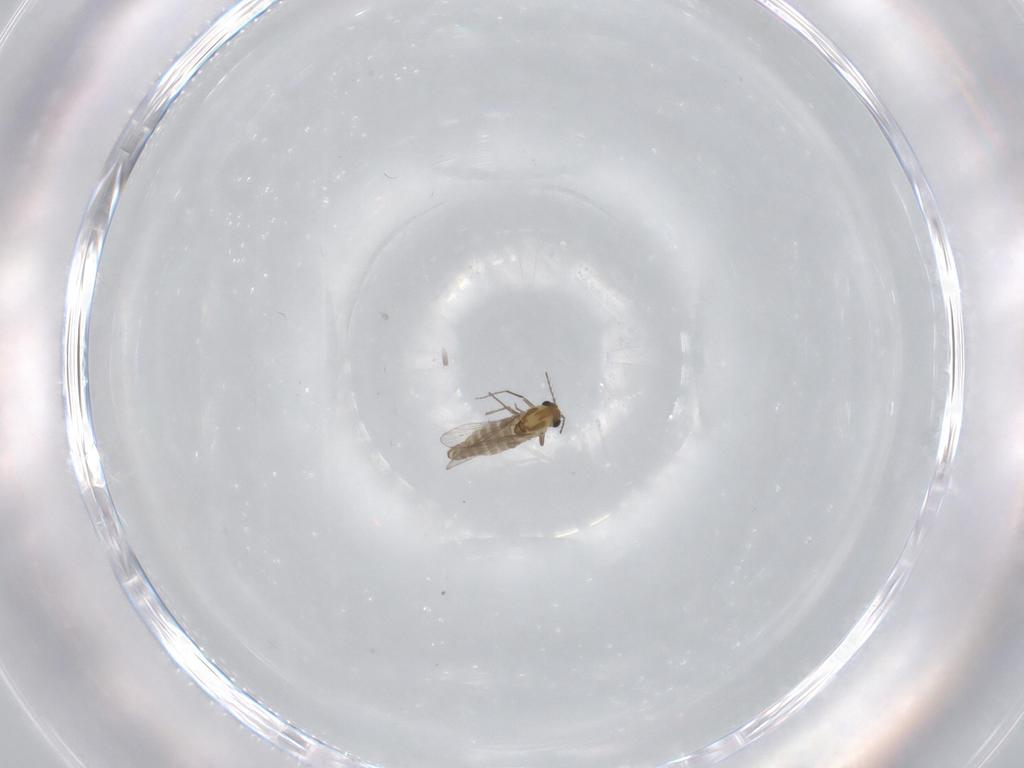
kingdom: Animalia
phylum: Arthropoda
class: Insecta
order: Diptera
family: Chironomidae
